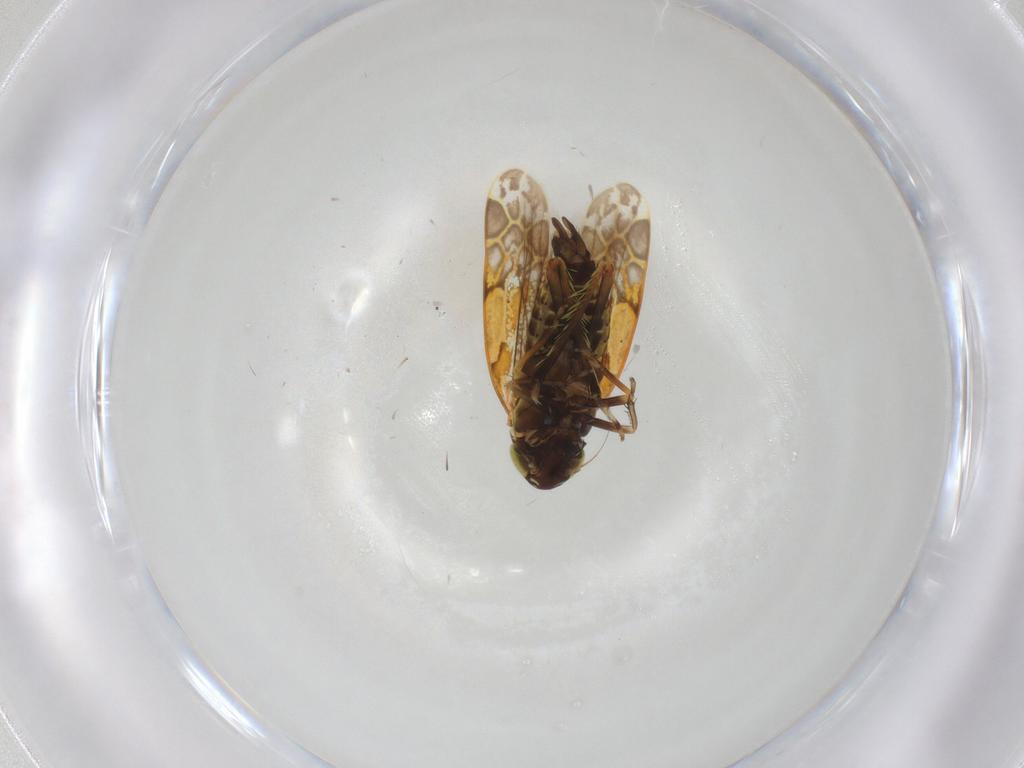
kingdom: Animalia
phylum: Arthropoda
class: Insecta
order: Hemiptera
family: Cicadellidae
